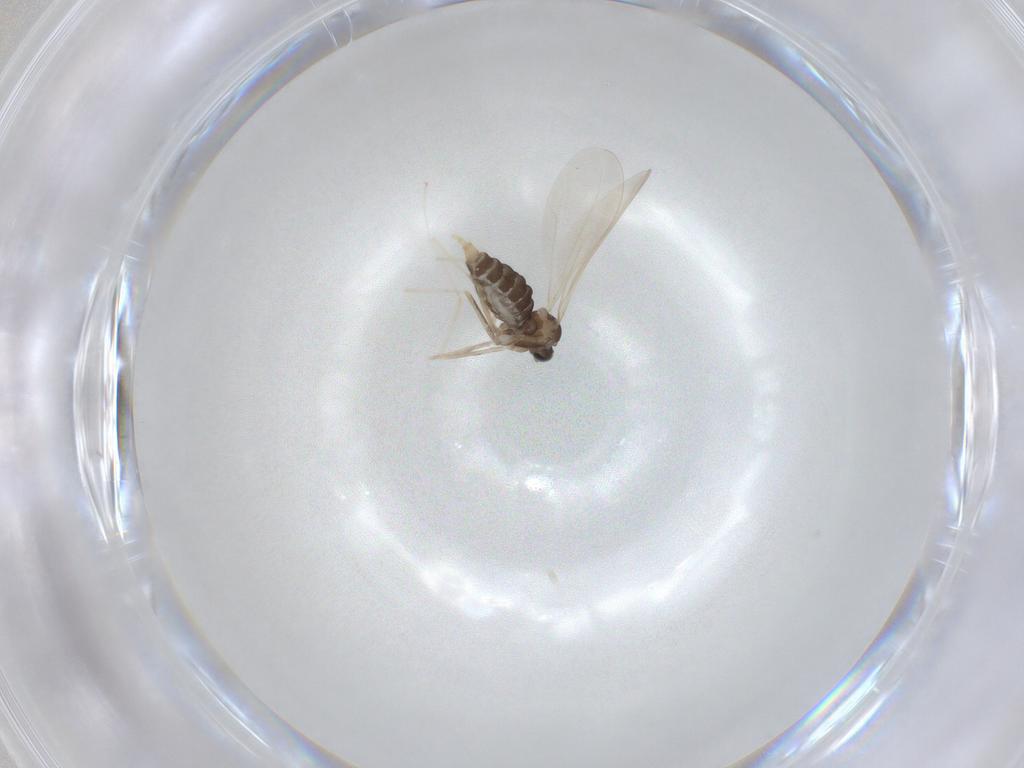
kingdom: Animalia
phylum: Arthropoda
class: Insecta
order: Diptera
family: Cecidomyiidae
